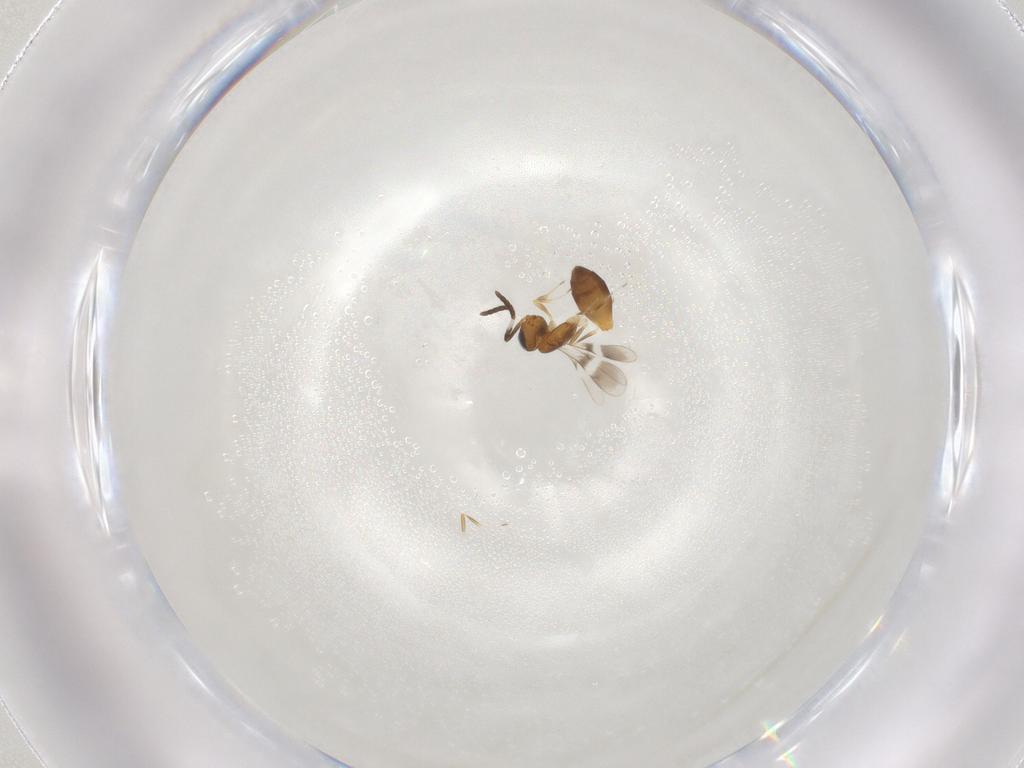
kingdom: Animalia
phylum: Arthropoda
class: Insecta
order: Hymenoptera
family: Scelionidae
